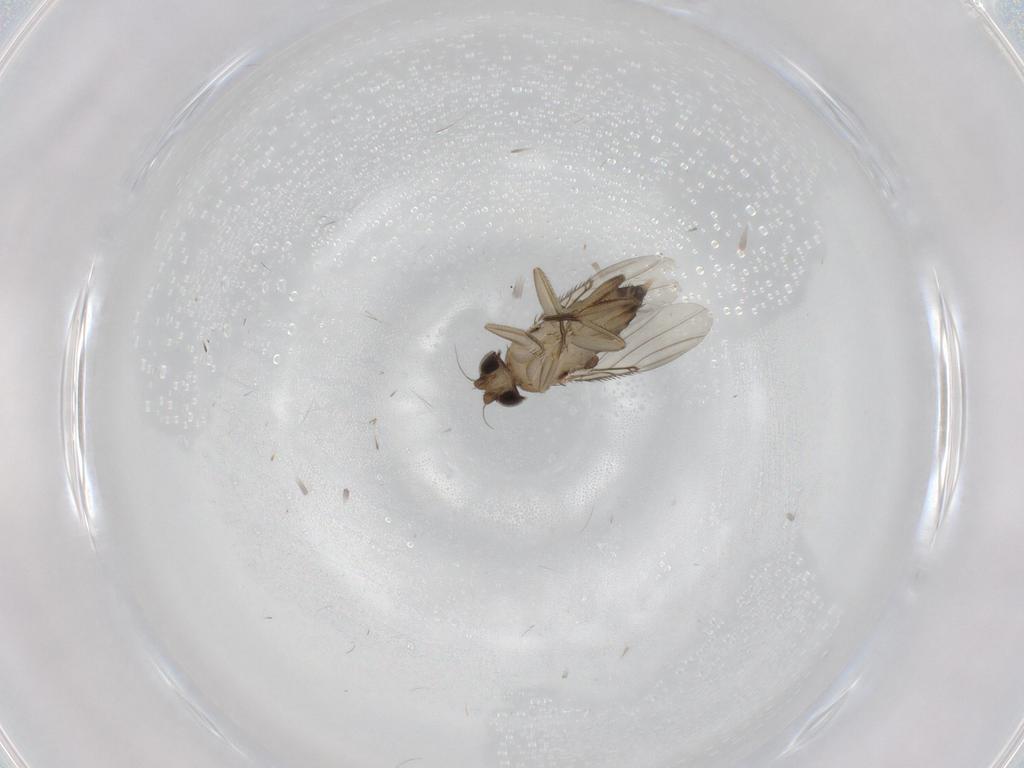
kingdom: Animalia
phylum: Arthropoda
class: Insecta
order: Diptera
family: Phoridae
